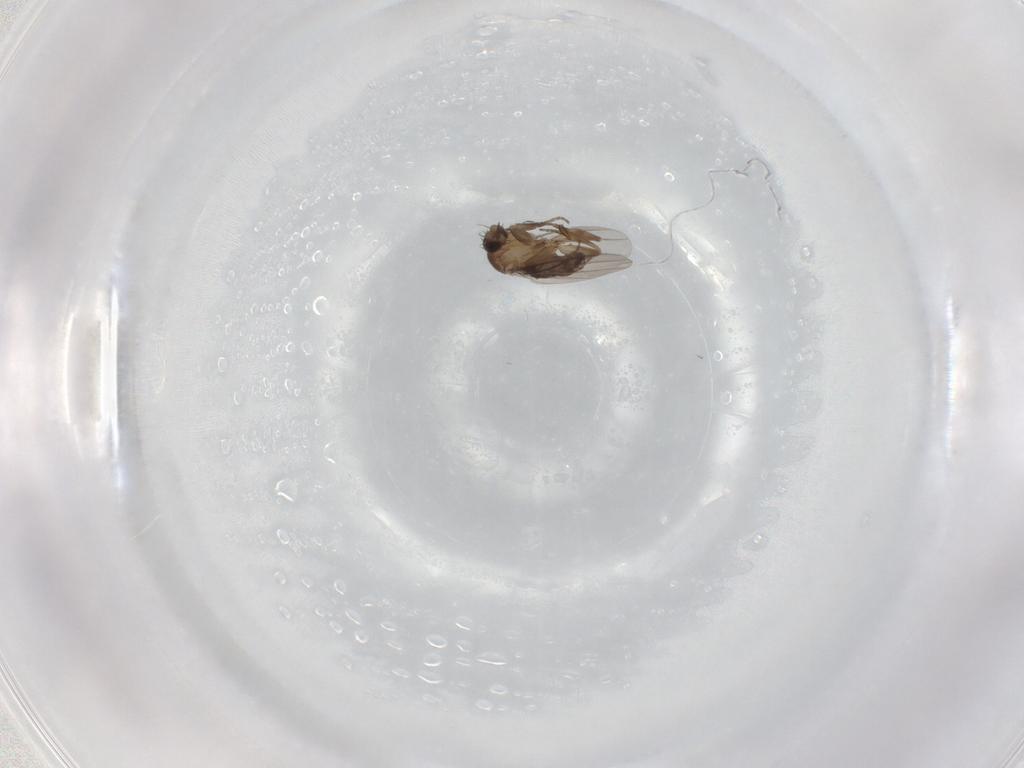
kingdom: Animalia
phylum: Arthropoda
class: Insecta
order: Diptera
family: Phoridae
